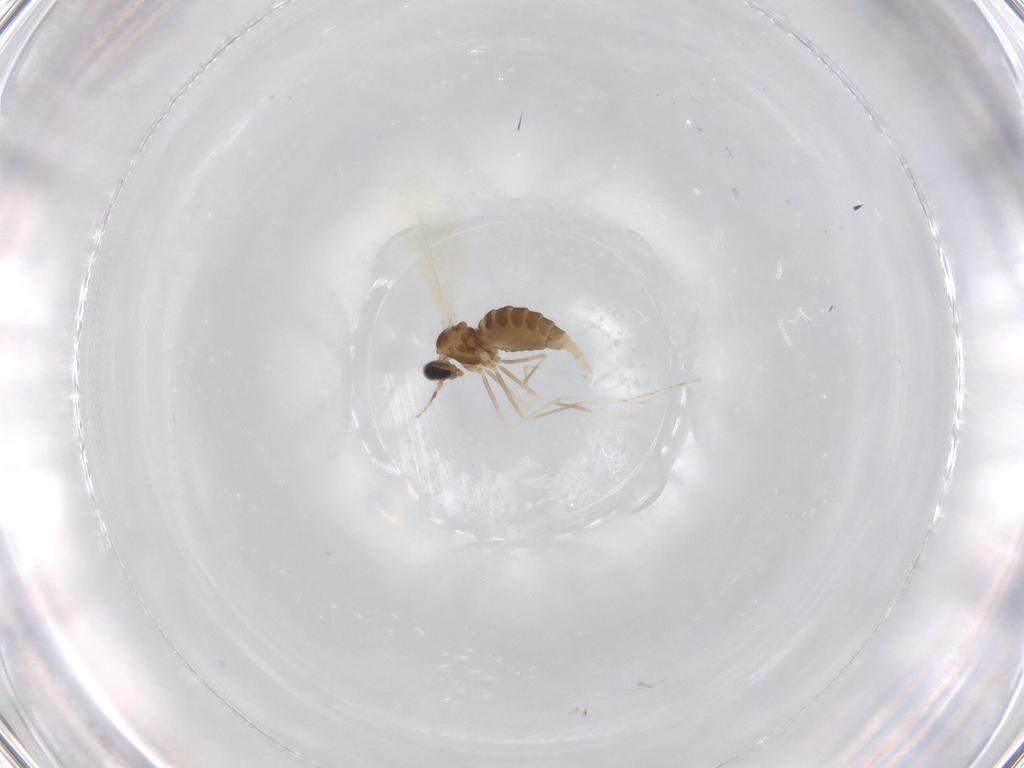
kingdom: Animalia
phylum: Arthropoda
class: Insecta
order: Diptera
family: Cecidomyiidae
